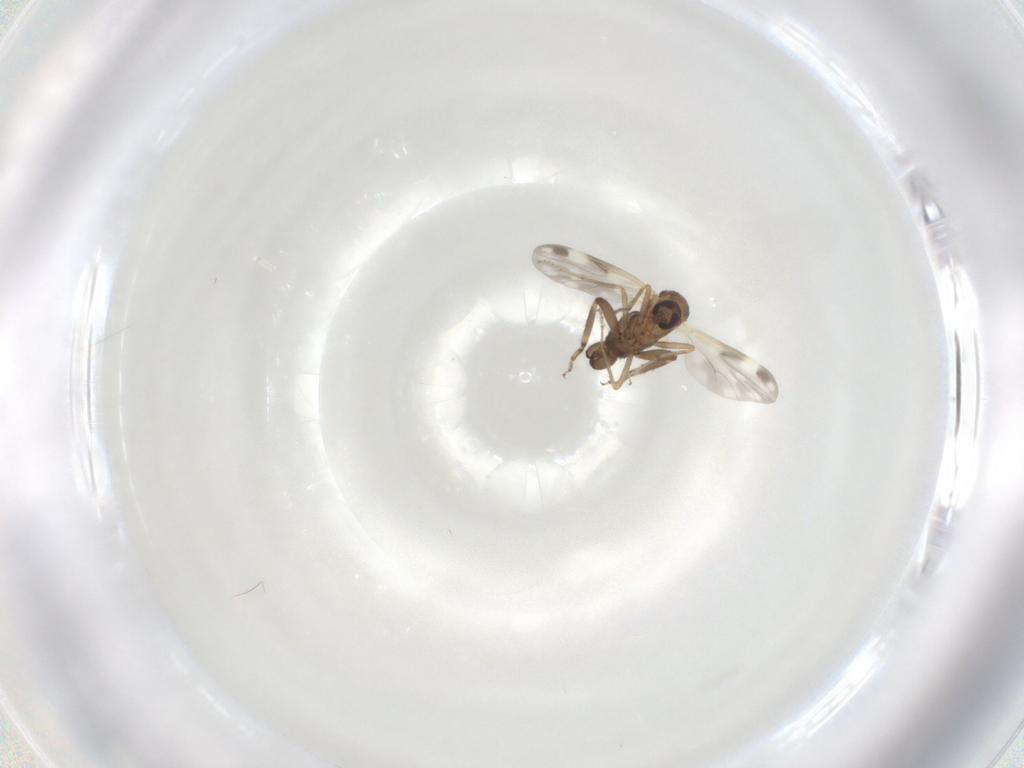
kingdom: Animalia
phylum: Arthropoda
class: Insecta
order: Diptera
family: Ceratopogonidae
